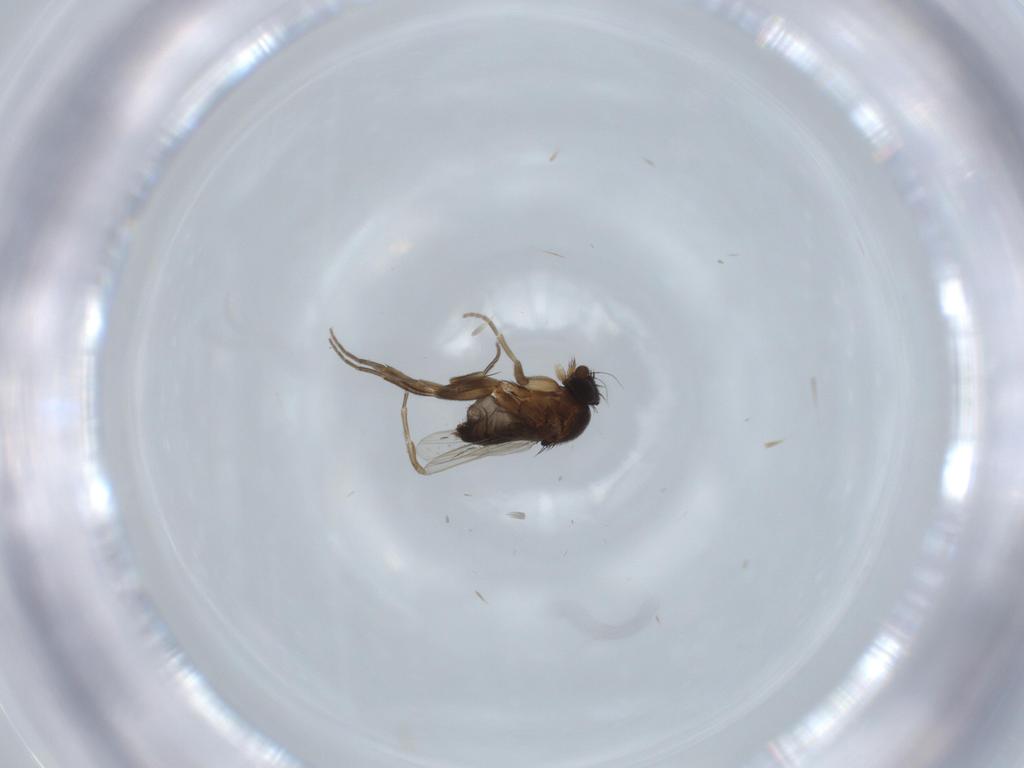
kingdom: Animalia
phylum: Arthropoda
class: Insecta
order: Diptera
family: Phoridae
